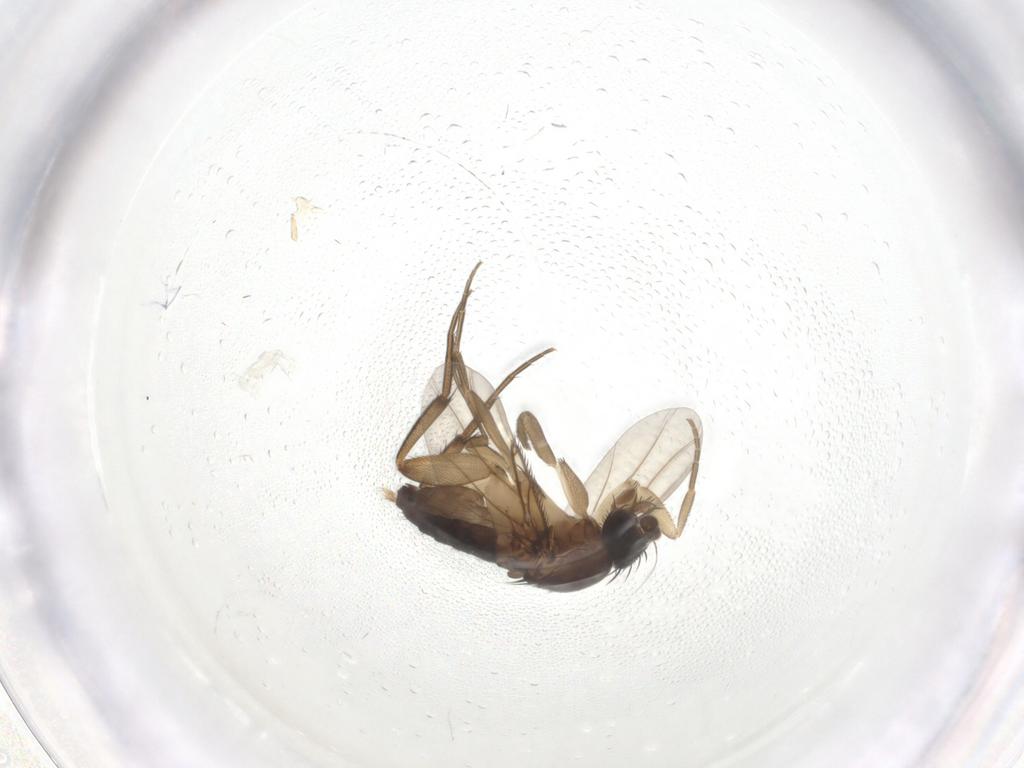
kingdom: Animalia
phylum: Arthropoda
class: Insecta
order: Diptera
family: Phoridae
